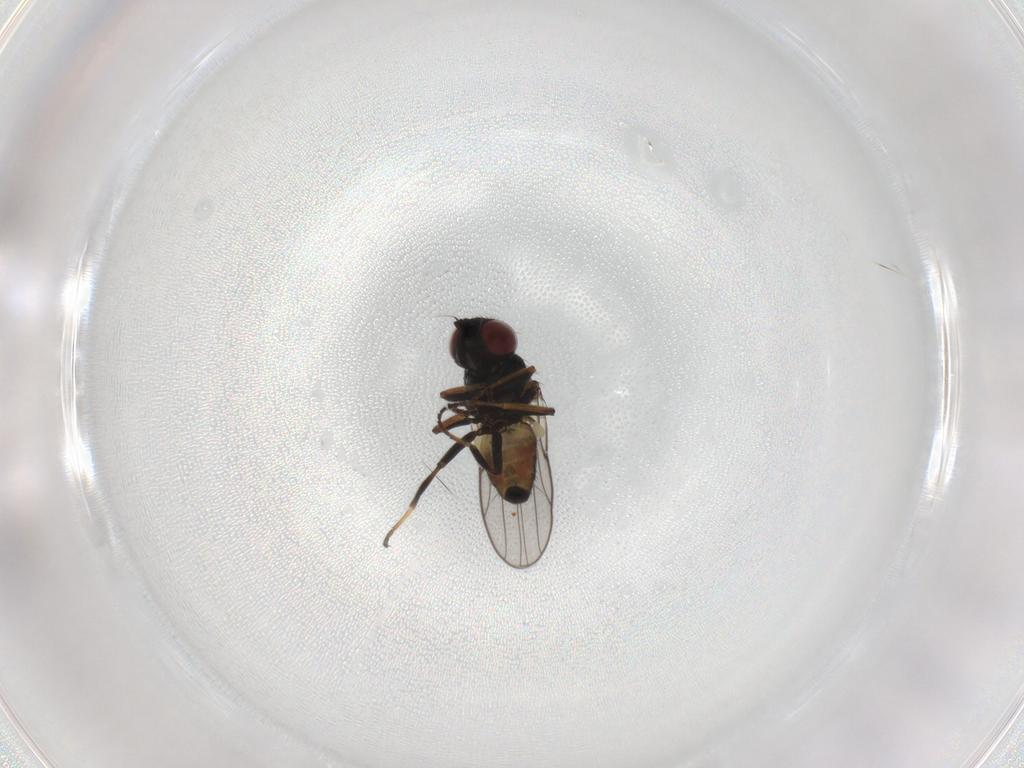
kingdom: Animalia
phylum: Arthropoda
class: Insecta
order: Diptera
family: Chloropidae
